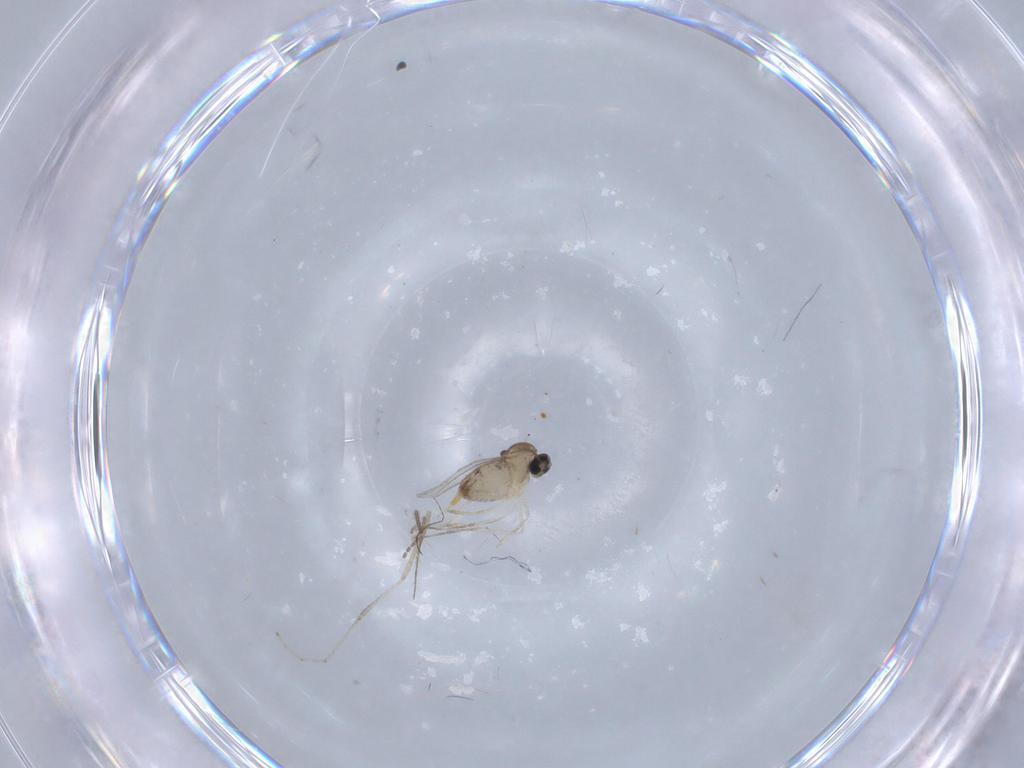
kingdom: Animalia
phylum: Arthropoda
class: Insecta
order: Diptera
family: Cecidomyiidae
